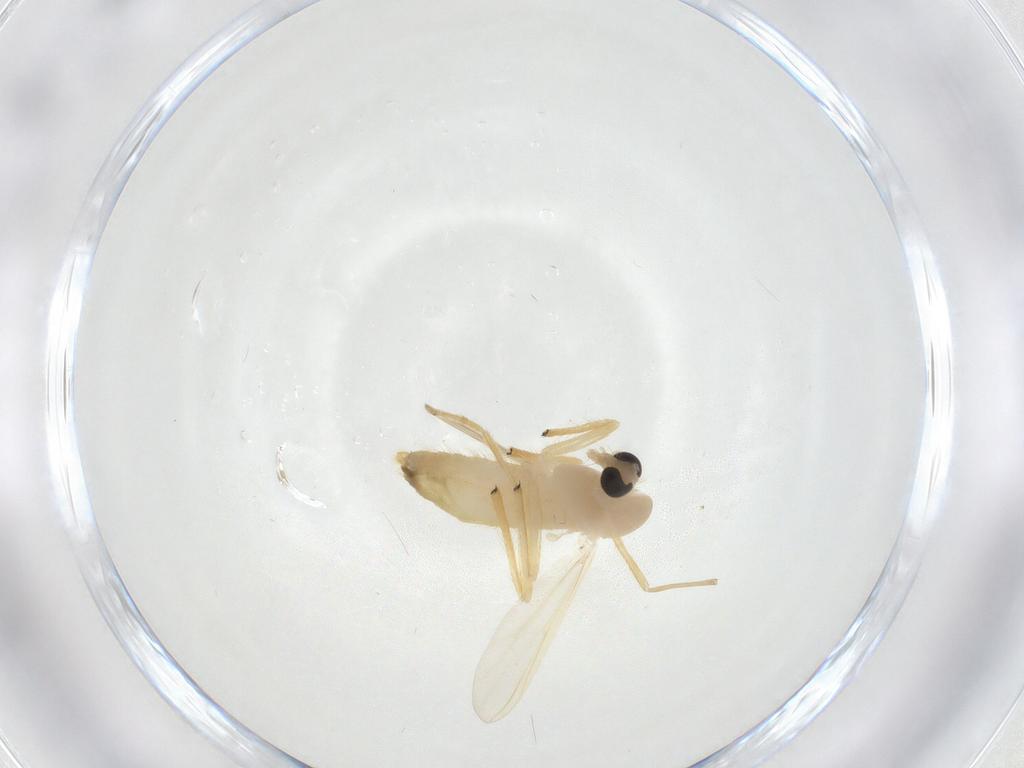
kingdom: Animalia
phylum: Arthropoda
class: Insecta
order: Diptera
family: Chironomidae
